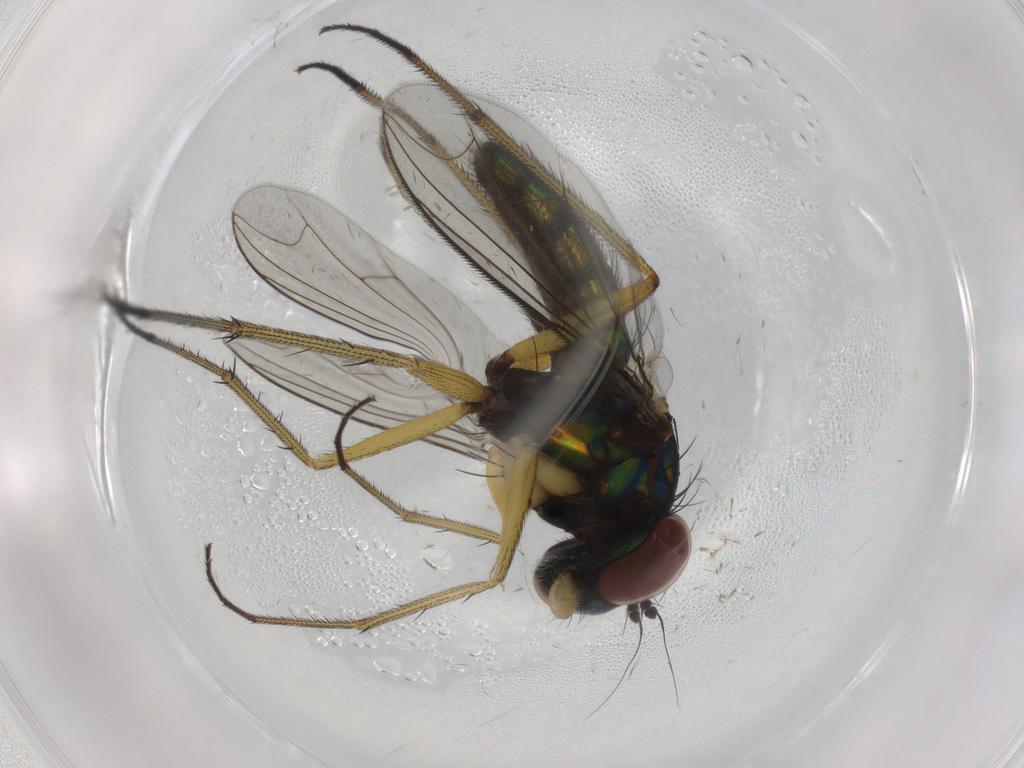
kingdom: Animalia
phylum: Arthropoda
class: Insecta
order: Diptera
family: Dolichopodidae
